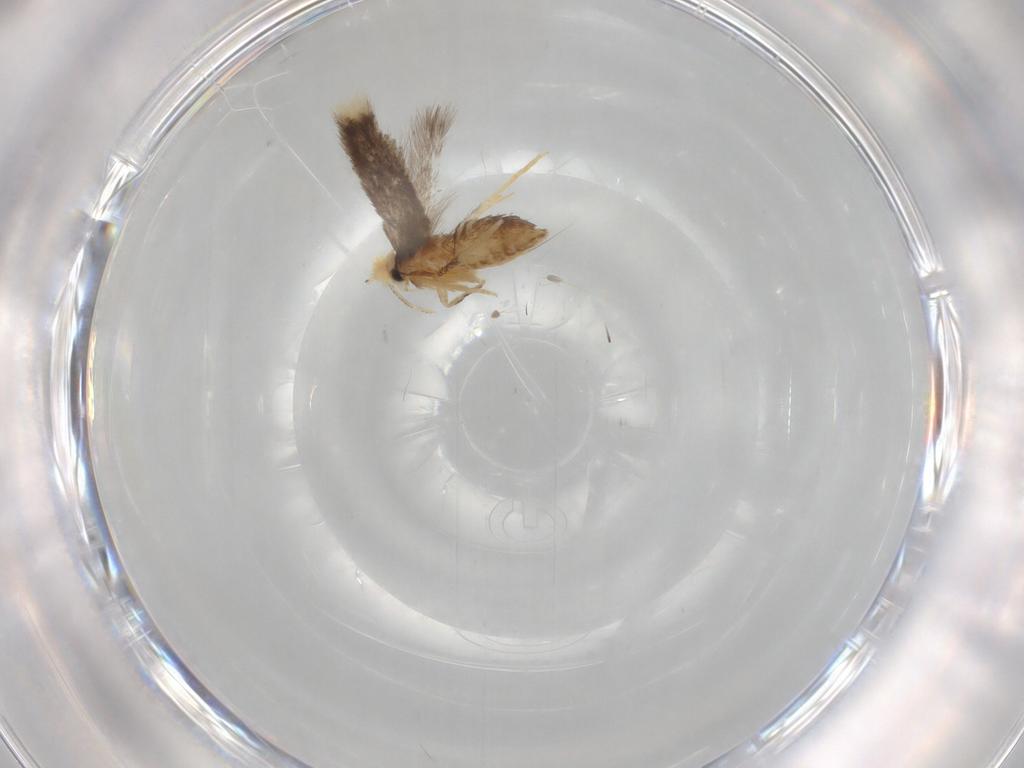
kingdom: Animalia
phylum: Arthropoda
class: Insecta
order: Lepidoptera
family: Nepticulidae
